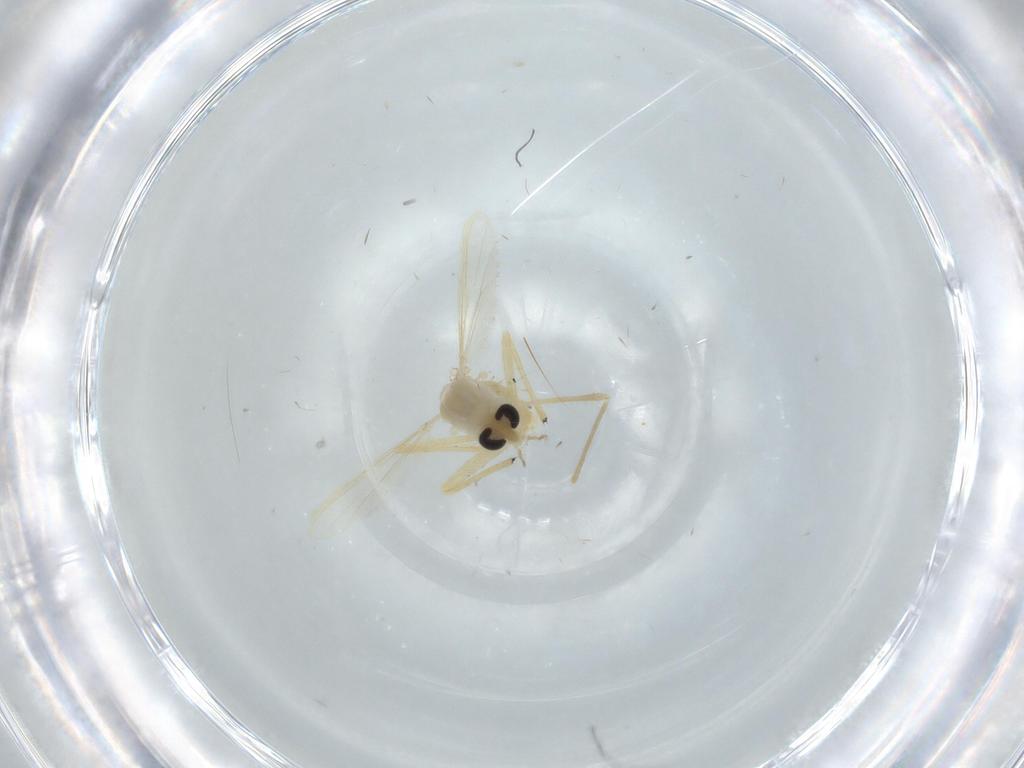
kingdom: Animalia
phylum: Arthropoda
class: Insecta
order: Diptera
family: Chironomidae
